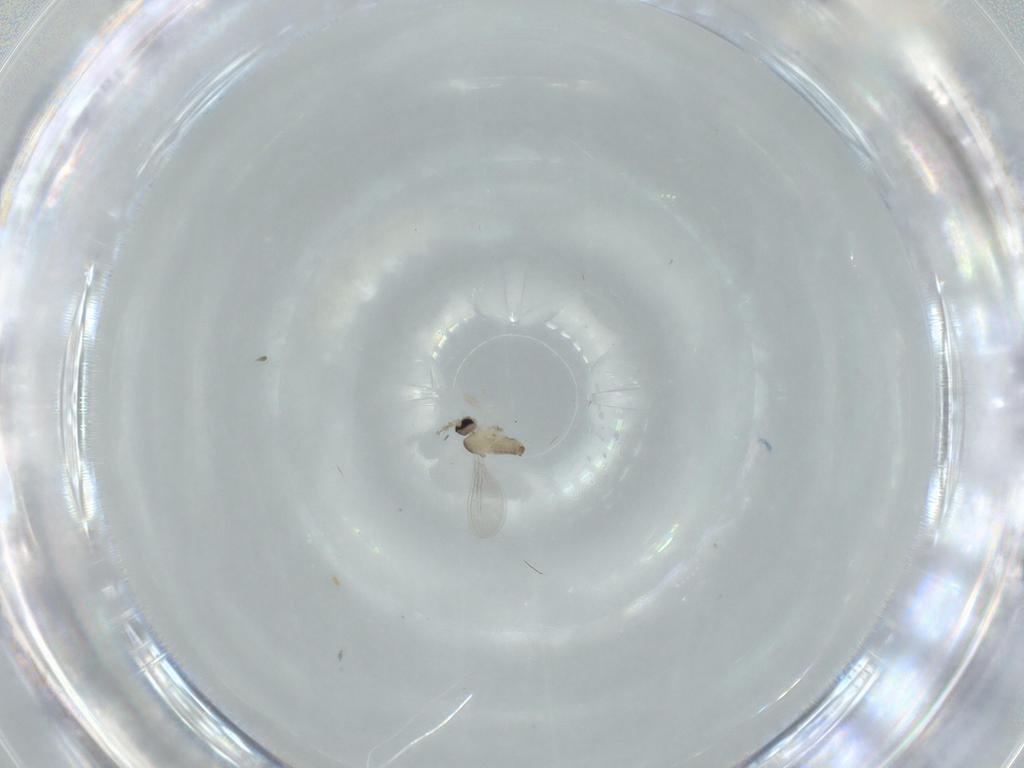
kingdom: Animalia
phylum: Arthropoda
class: Insecta
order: Diptera
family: Cecidomyiidae
